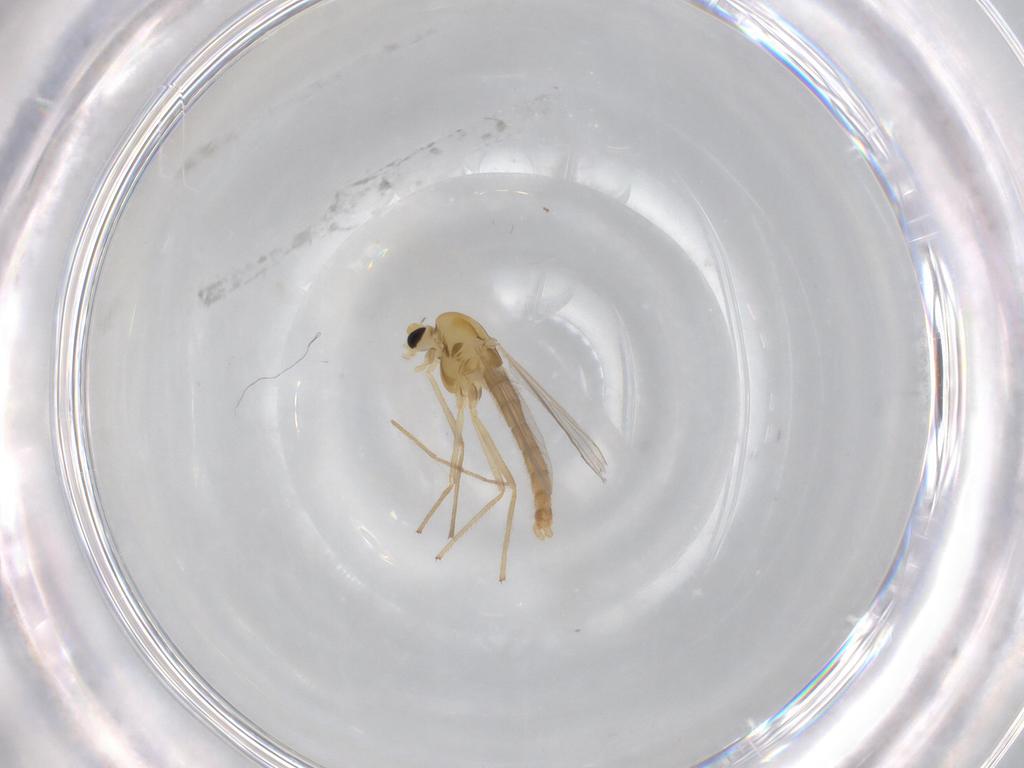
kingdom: Animalia
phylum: Arthropoda
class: Insecta
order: Diptera
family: Chironomidae
